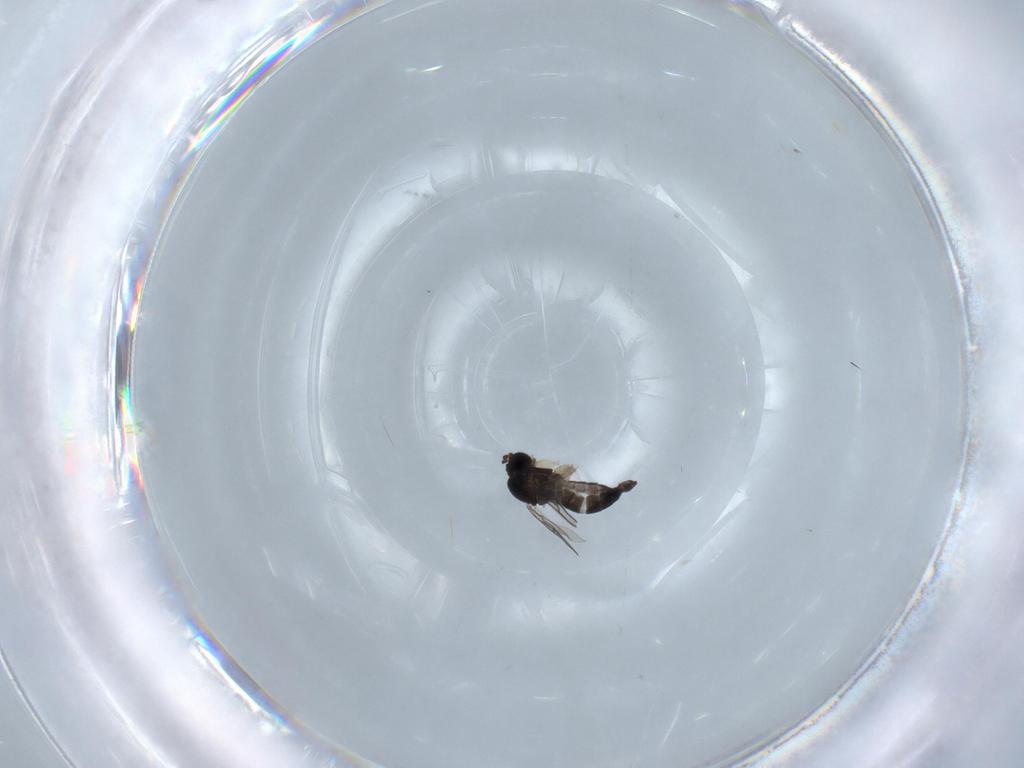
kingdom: Animalia
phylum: Arthropoda
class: Insecta
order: Diptera
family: Sciaridae
